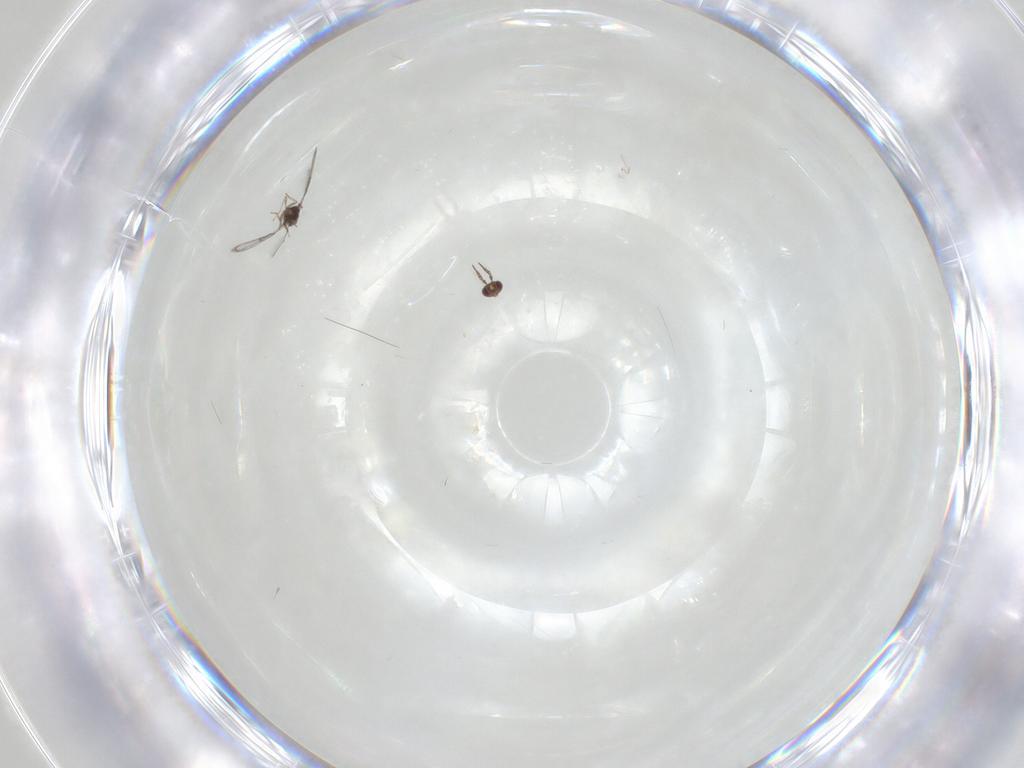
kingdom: Animalia
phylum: Arthropoda
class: Insecta
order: Hymenoptera
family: Trichogrammatidae
